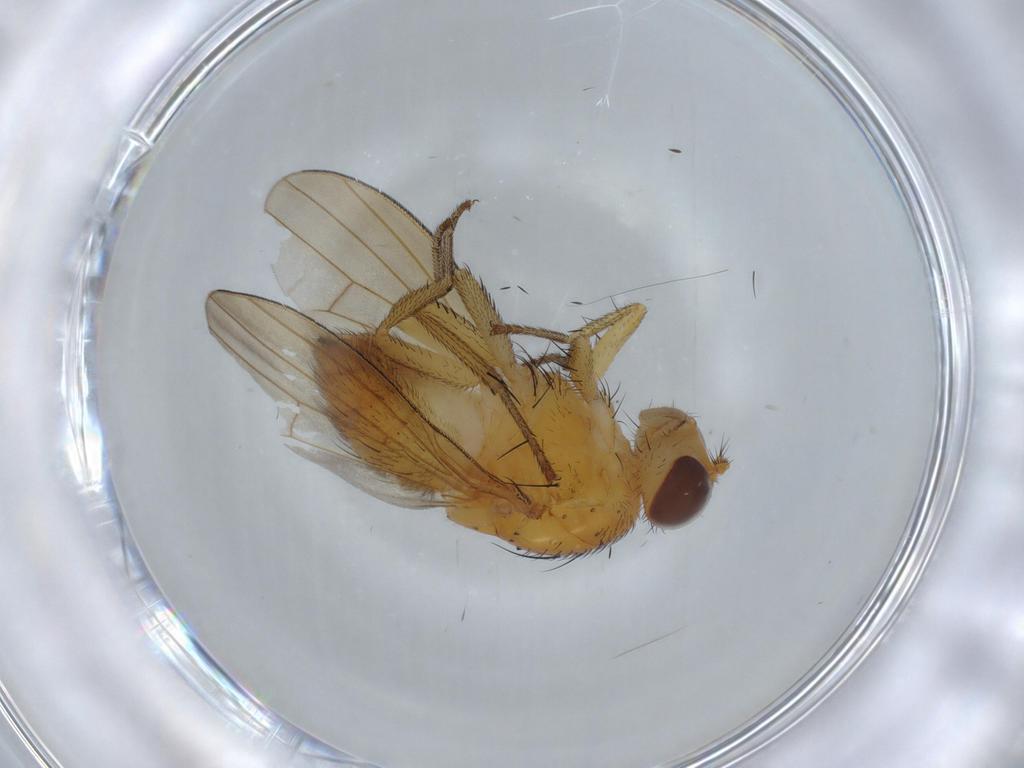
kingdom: Animalia
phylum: Arthropoda
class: Insecta
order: Diptera
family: Lauxaniidae
